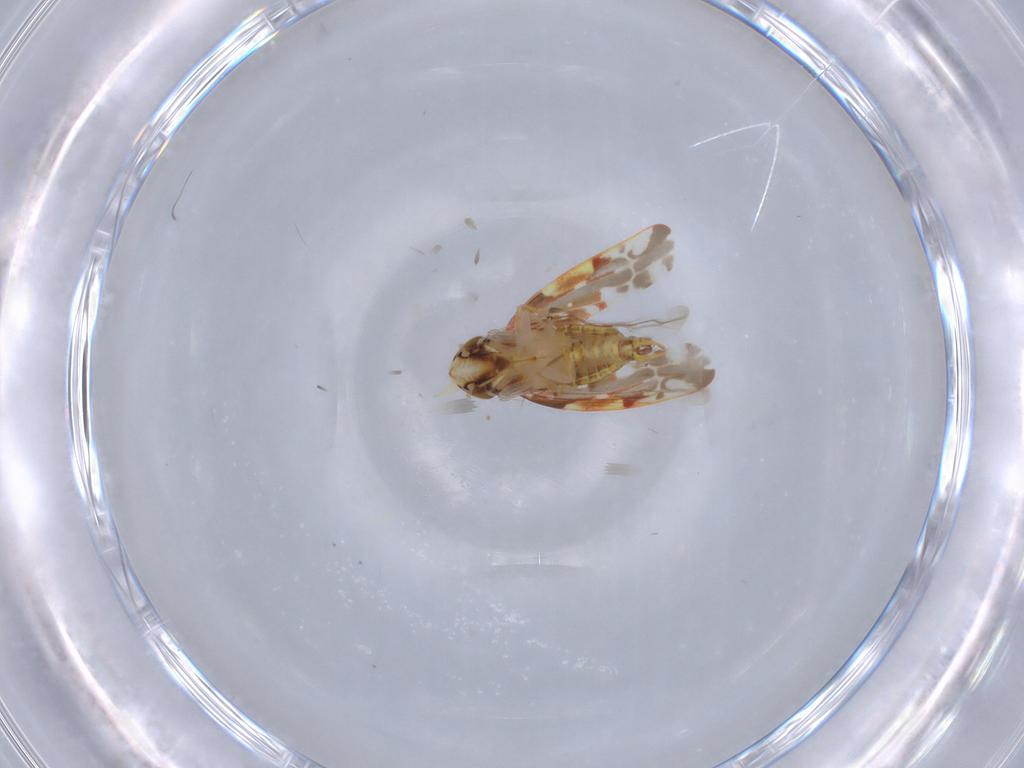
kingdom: Animalia
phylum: Arthropoda
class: Insecta
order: Hemiptera
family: Cicadellidae
